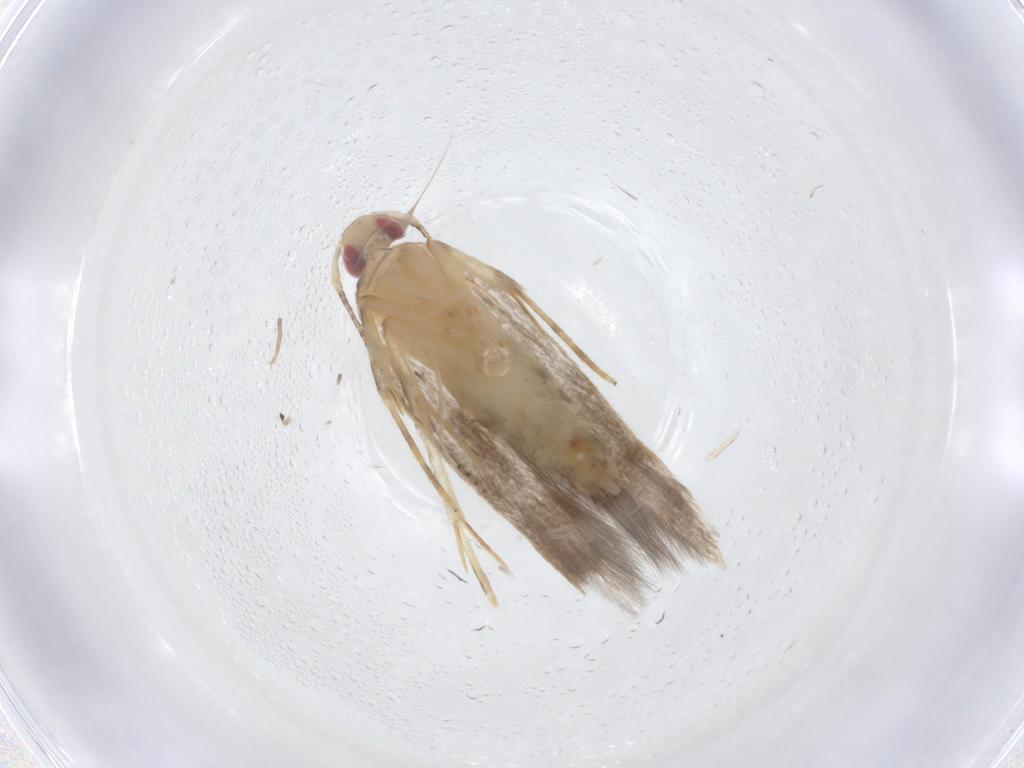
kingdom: Animalia
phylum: Arthropoda
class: Insecta
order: Lepidoptera
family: Cosmopterigidae
